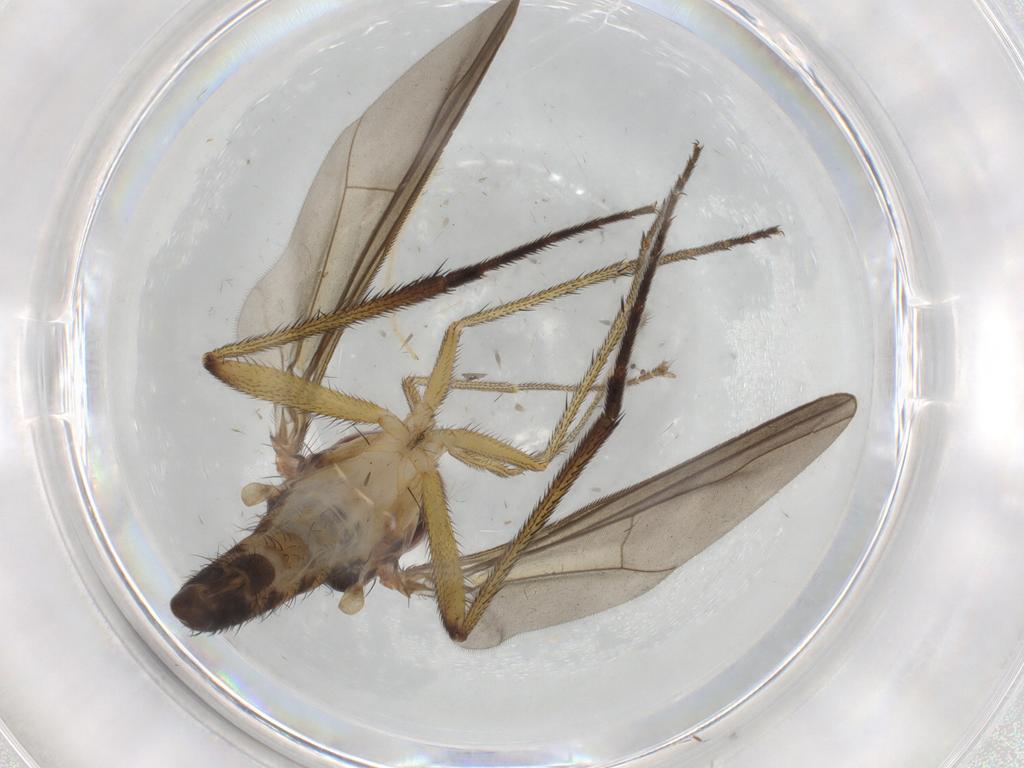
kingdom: Animalia
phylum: Arthropoda
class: Insecta
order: Diptera
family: Dolichopodidae
